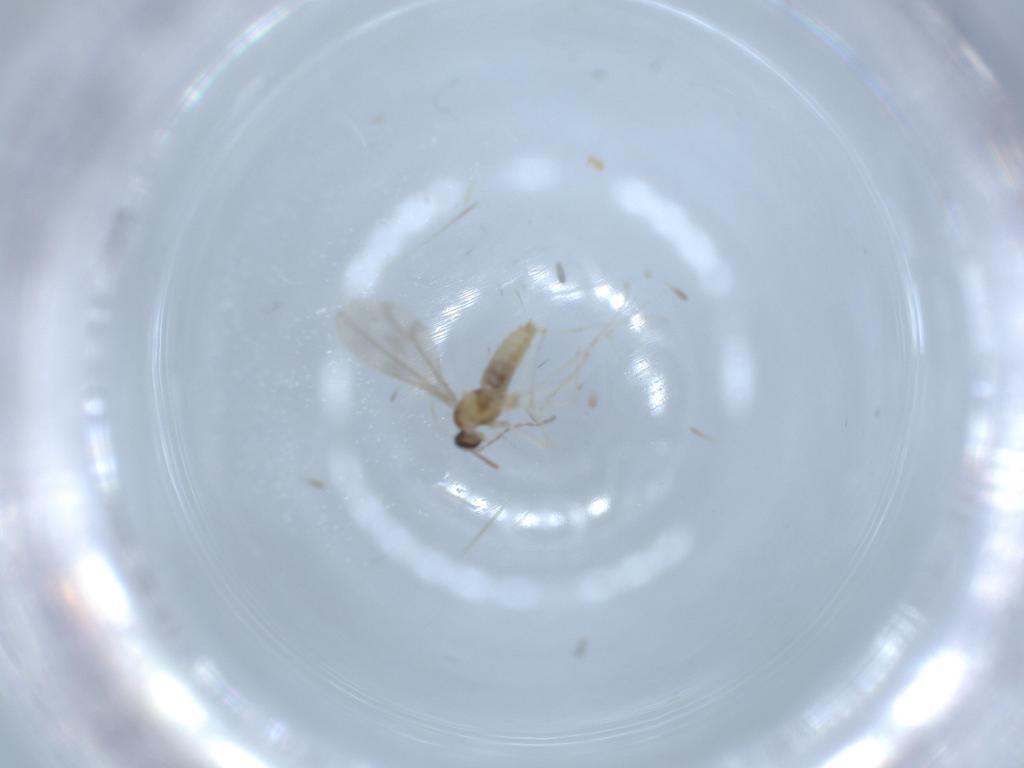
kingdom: Animalia
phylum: Arthropoda
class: Insecta
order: Diptera
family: Cecidomyiidae
